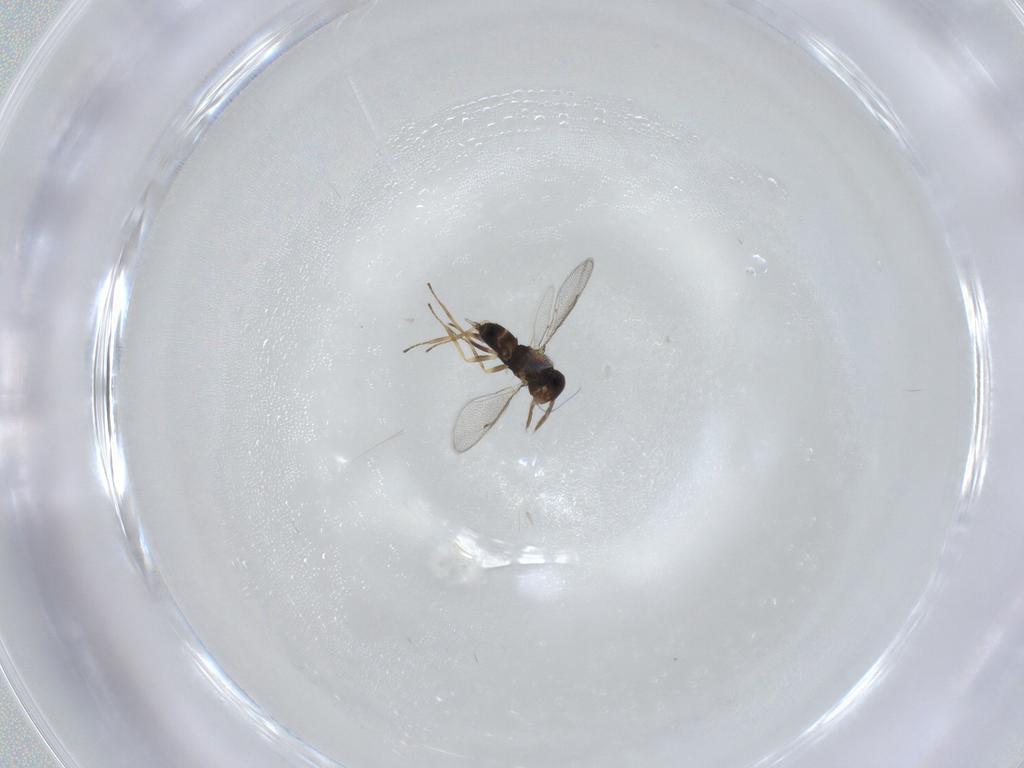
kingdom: Animalia
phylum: Arthropoda
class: Insecta
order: Hymenoptera
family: Eulophidae
